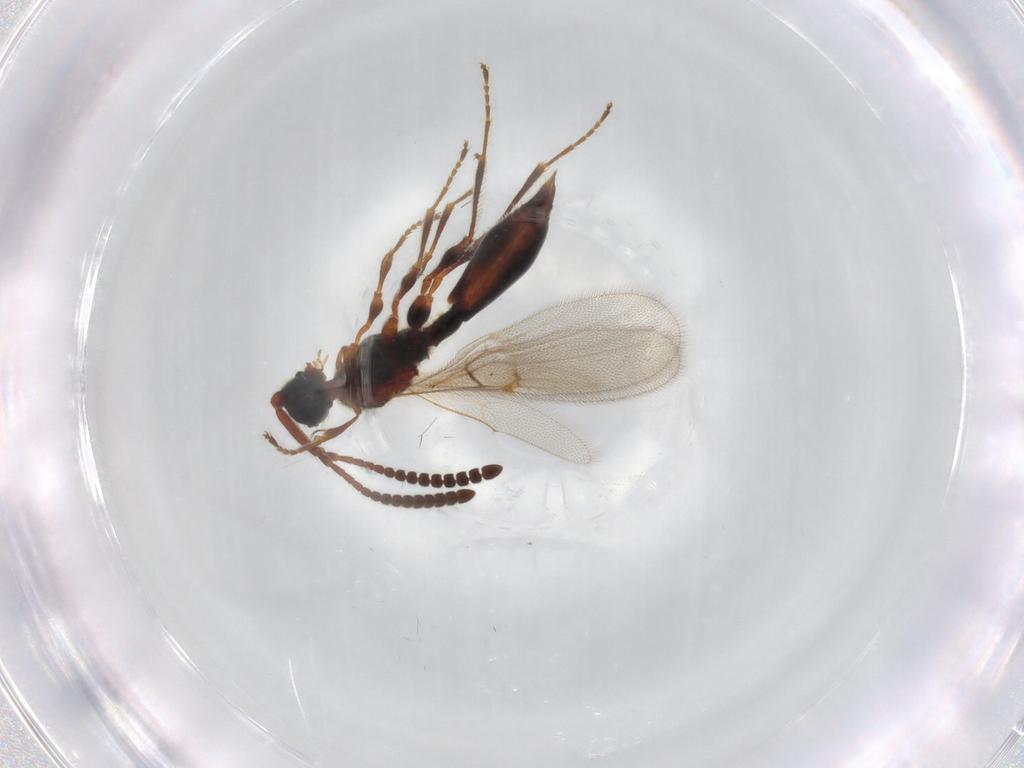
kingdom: Animalia
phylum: Arthropoda
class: Insecta
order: Hymenoptera
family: Diapriidae
